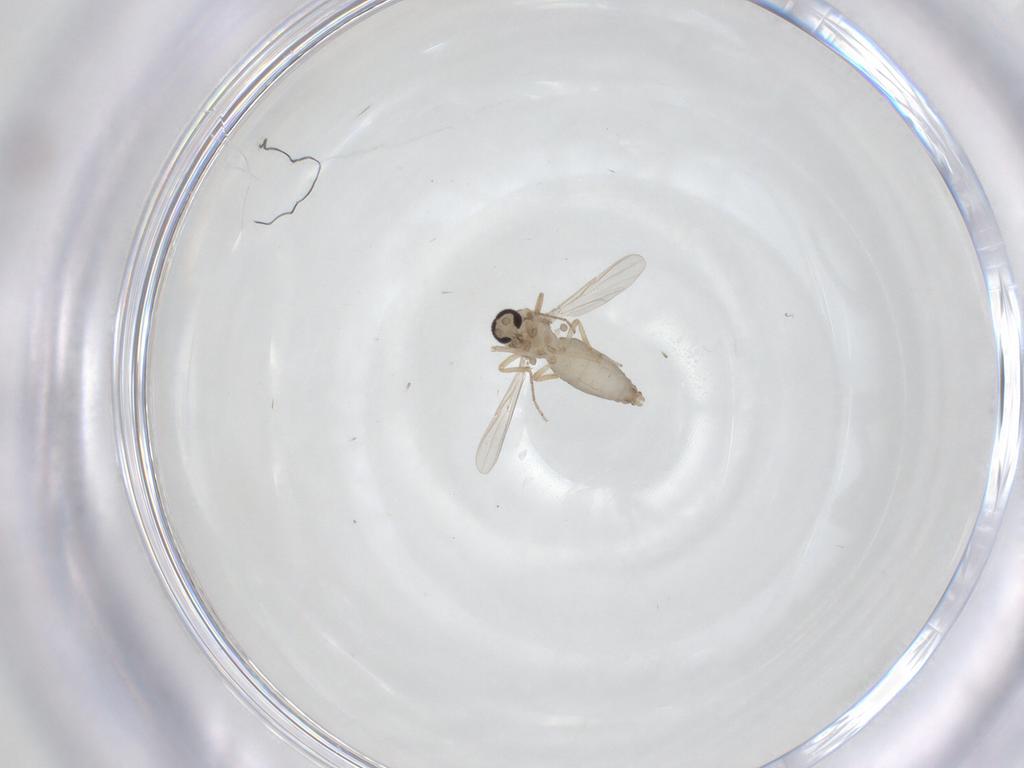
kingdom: Animalia
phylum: Arthropoda
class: Insecta
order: Diptera
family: Ceratopogonidae
